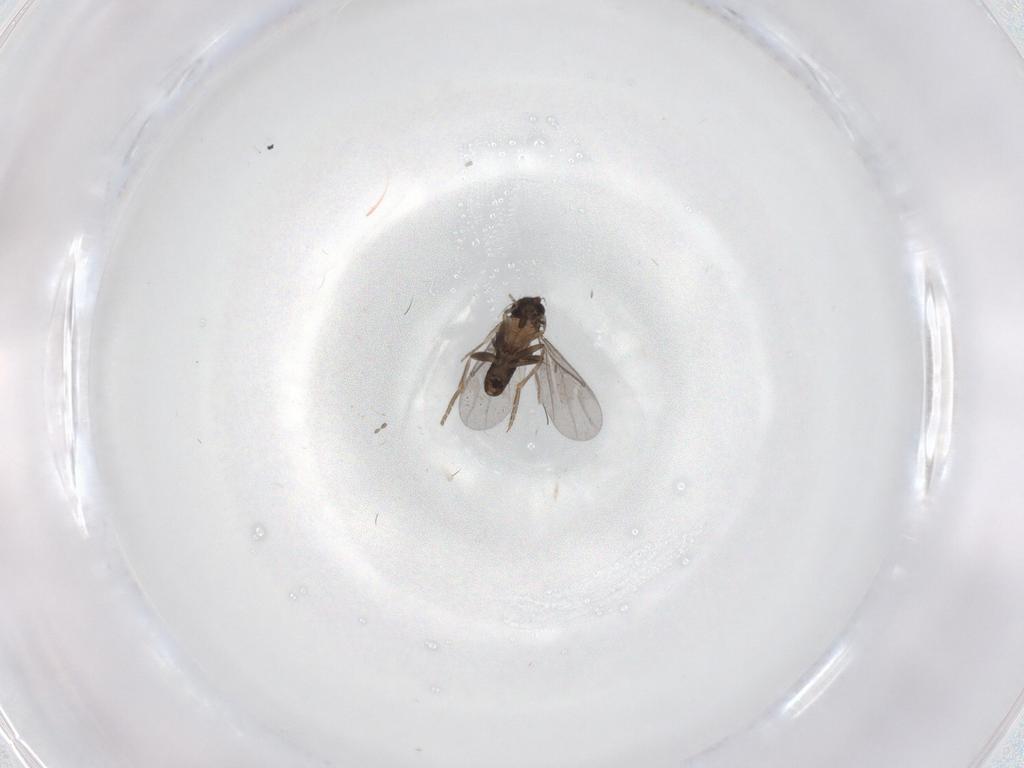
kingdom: Animalia
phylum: Arthropoda
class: Insecta
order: Diptera
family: Cecidomyiidae
